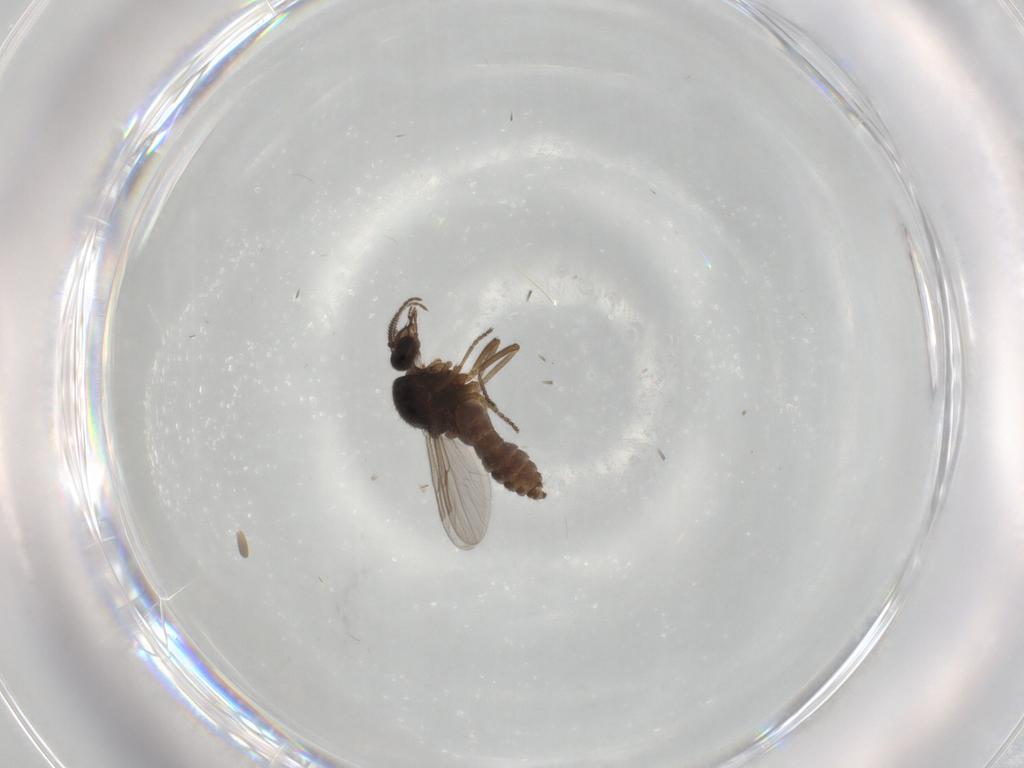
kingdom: Animalia
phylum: Arthropoda
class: Insecta
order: Diptera
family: Ceratopogonidae
